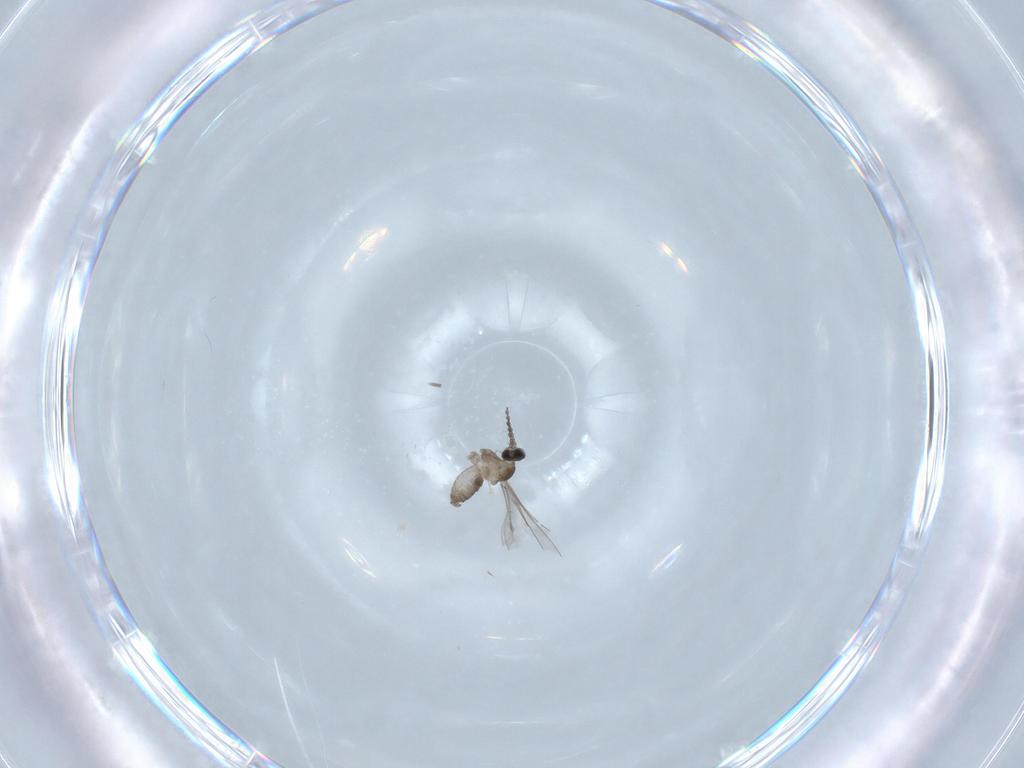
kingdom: Animalia
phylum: Arthropoda
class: Insecta
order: Diptera
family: Cecidomyiidae
